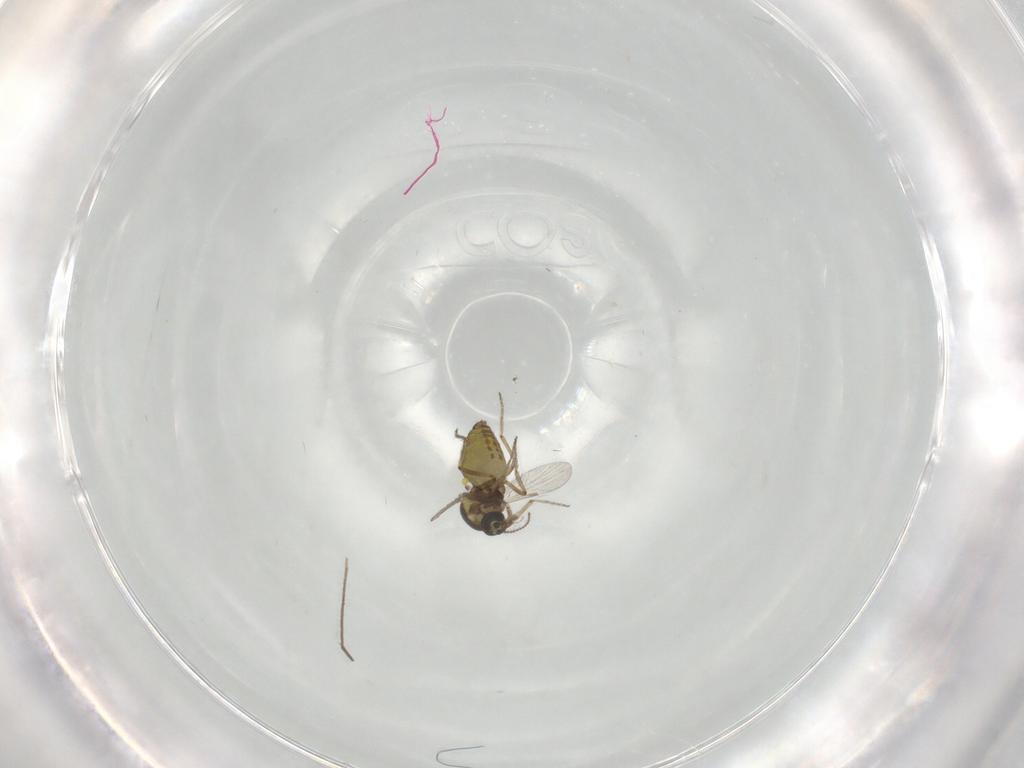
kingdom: Animalia
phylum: Arthropoda
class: Insecta
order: Diptera
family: Ceratopogonidae
